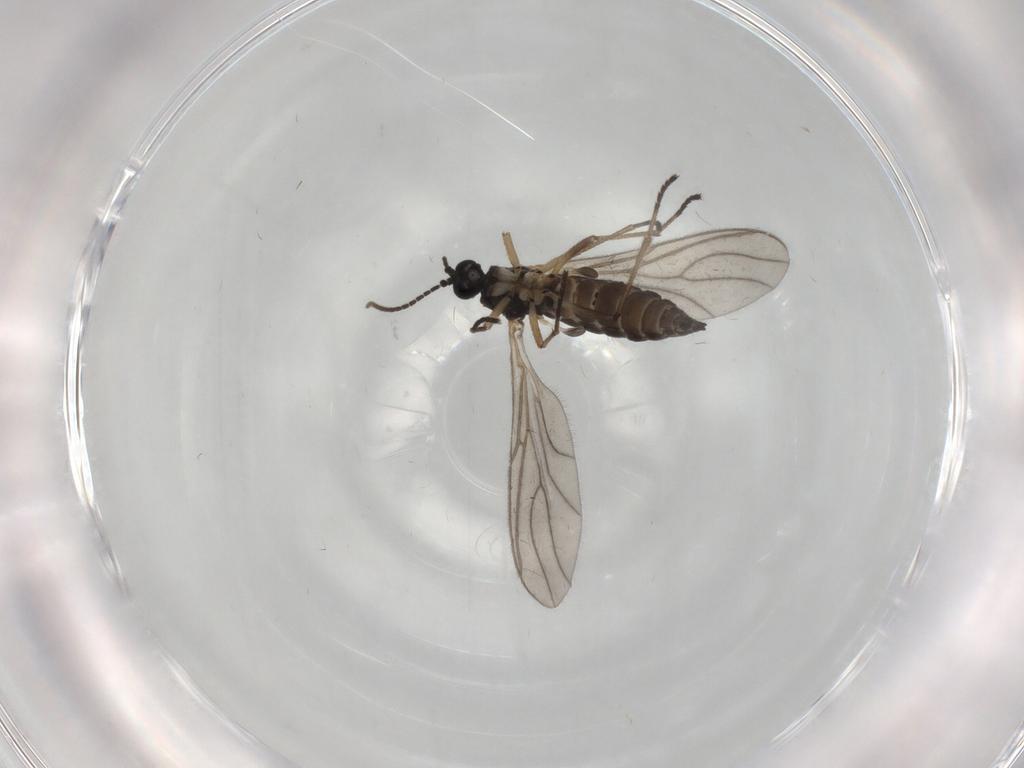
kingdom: Animalia
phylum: Arthropoda
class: Insecta
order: Diptera
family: Sciaridae
